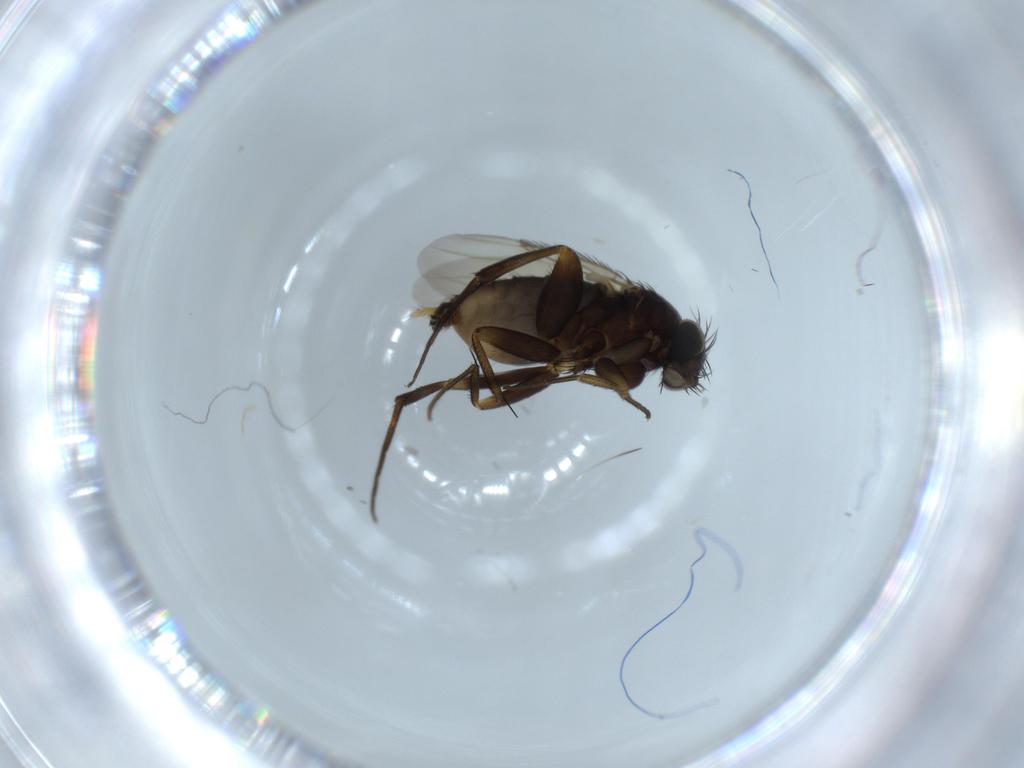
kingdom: Animalia
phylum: Arthropoda
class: Insecta
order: Diptera
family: Phoridae
